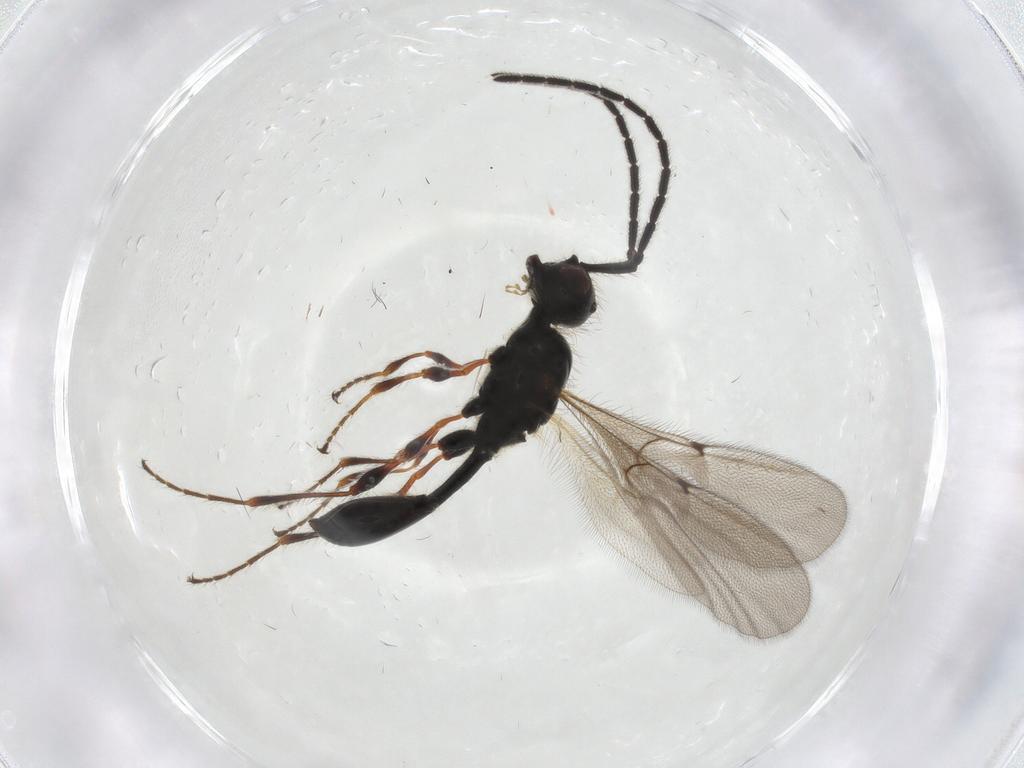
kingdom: Animalia
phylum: Arthropoda
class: Insecta
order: Hymenoptera
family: Diapriidae
